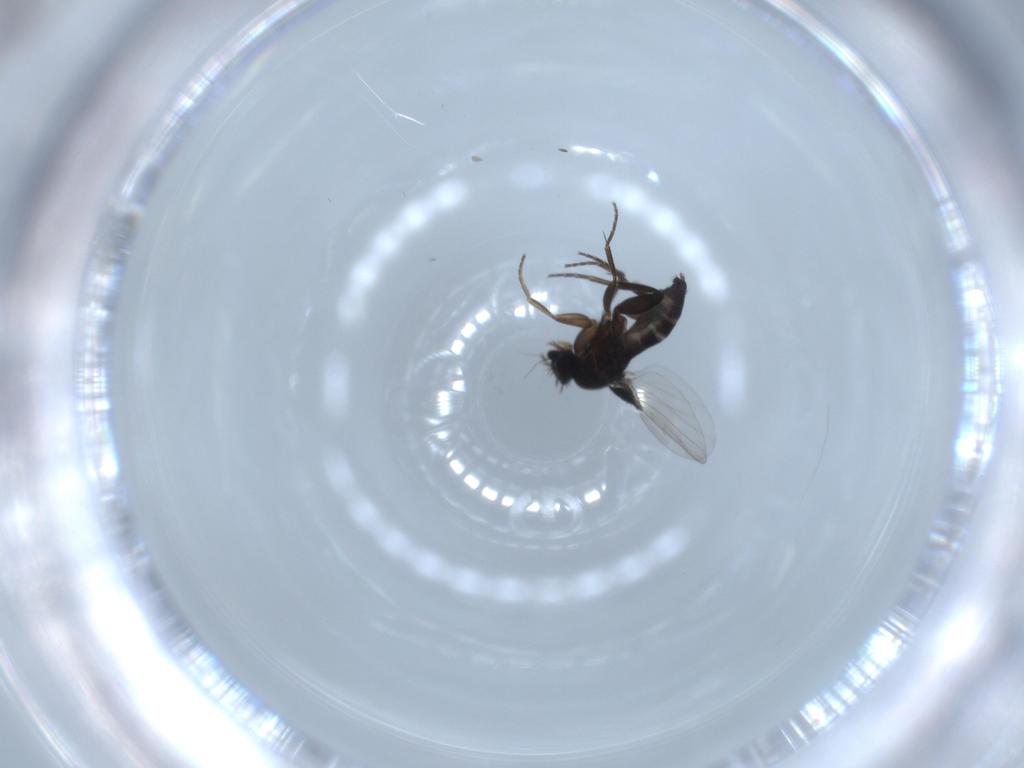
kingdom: Animalia
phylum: Arthropoda
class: Insecta
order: Diptera
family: Phoridae
